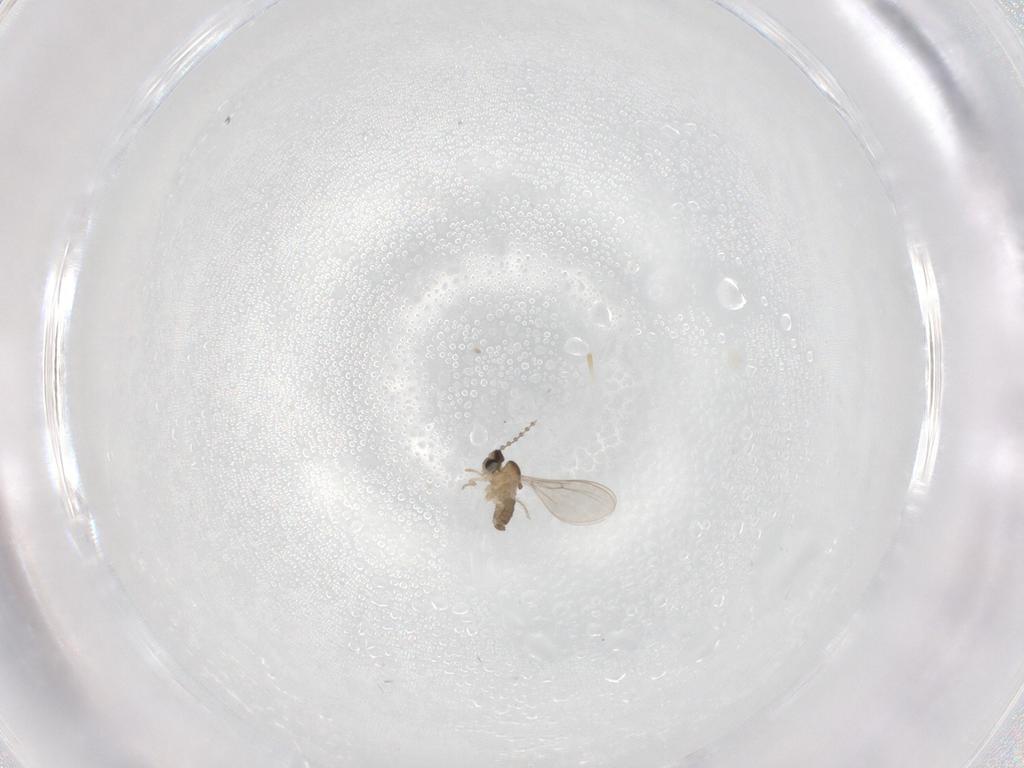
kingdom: Animalia
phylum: Arthropoda
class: Insecta
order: Diptera
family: Cecidomyiidae
